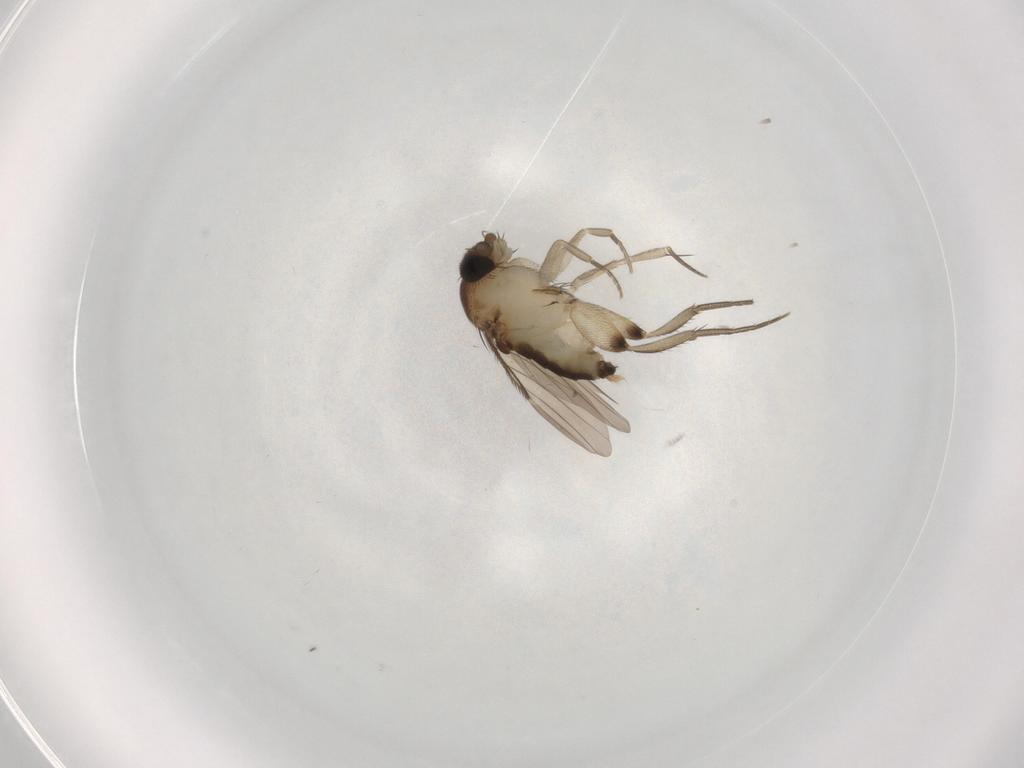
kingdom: Animalia
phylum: Arthropoda
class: Insecta
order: Diptera
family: Phoridae
